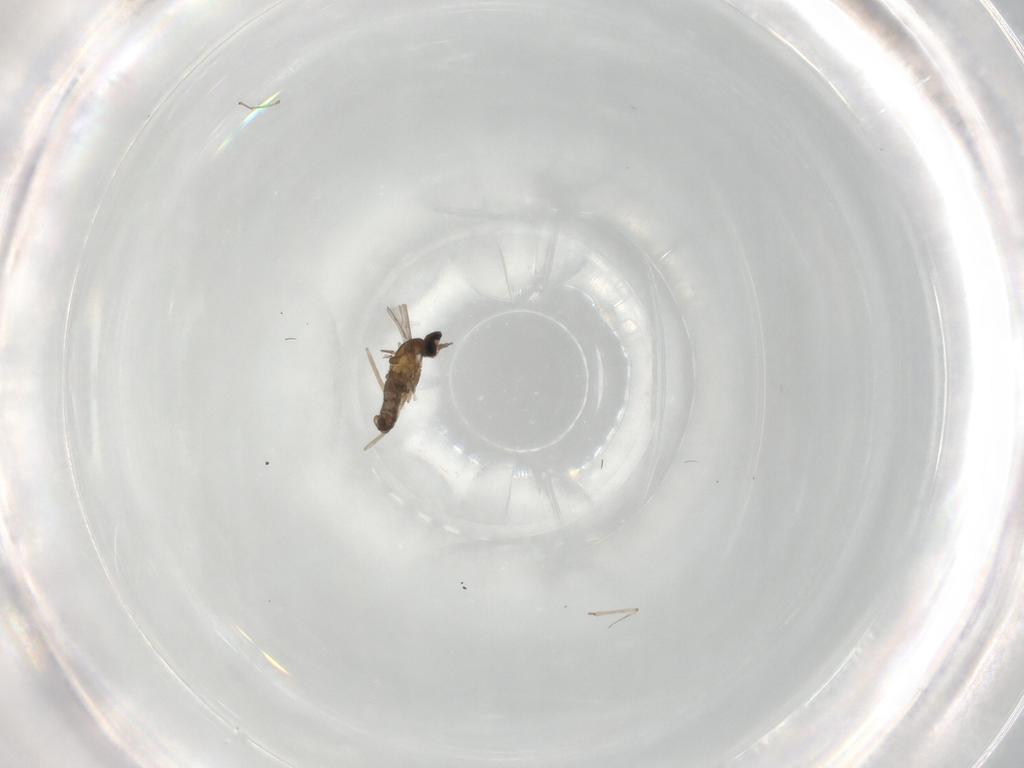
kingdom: Animalia
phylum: Arthropoda
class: Insecta
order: Diptera
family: Cecidomyiidae
